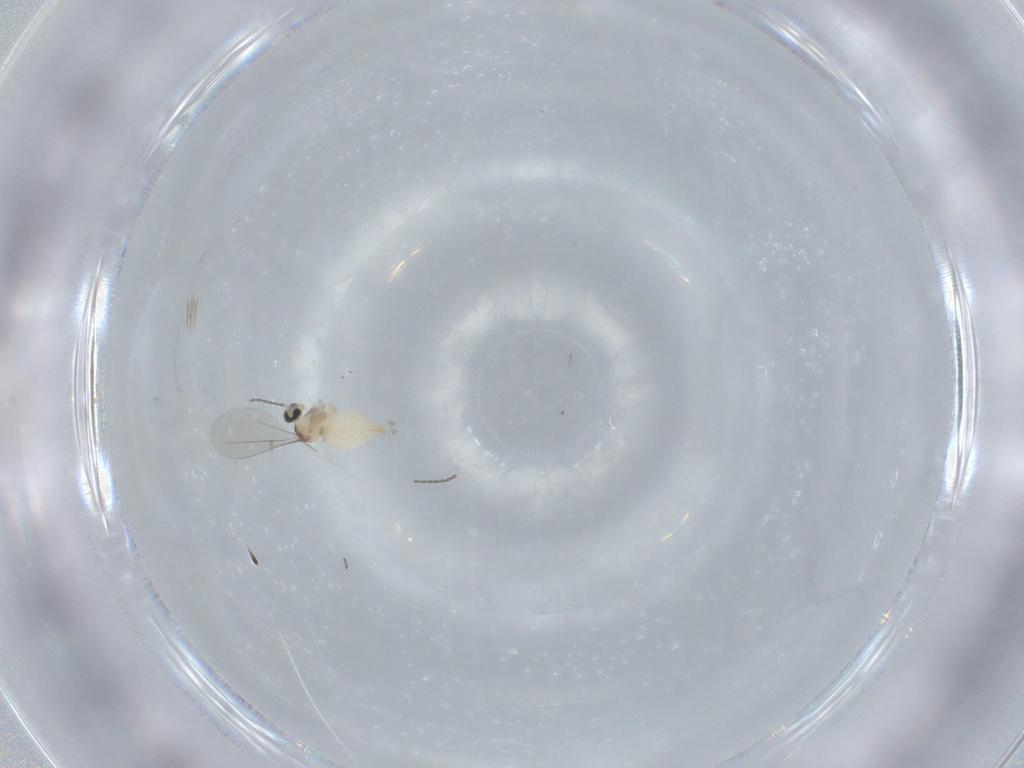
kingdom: Animalia
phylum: Arthropoda
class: Insecta
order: Diptera
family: Cecidomyiidae
